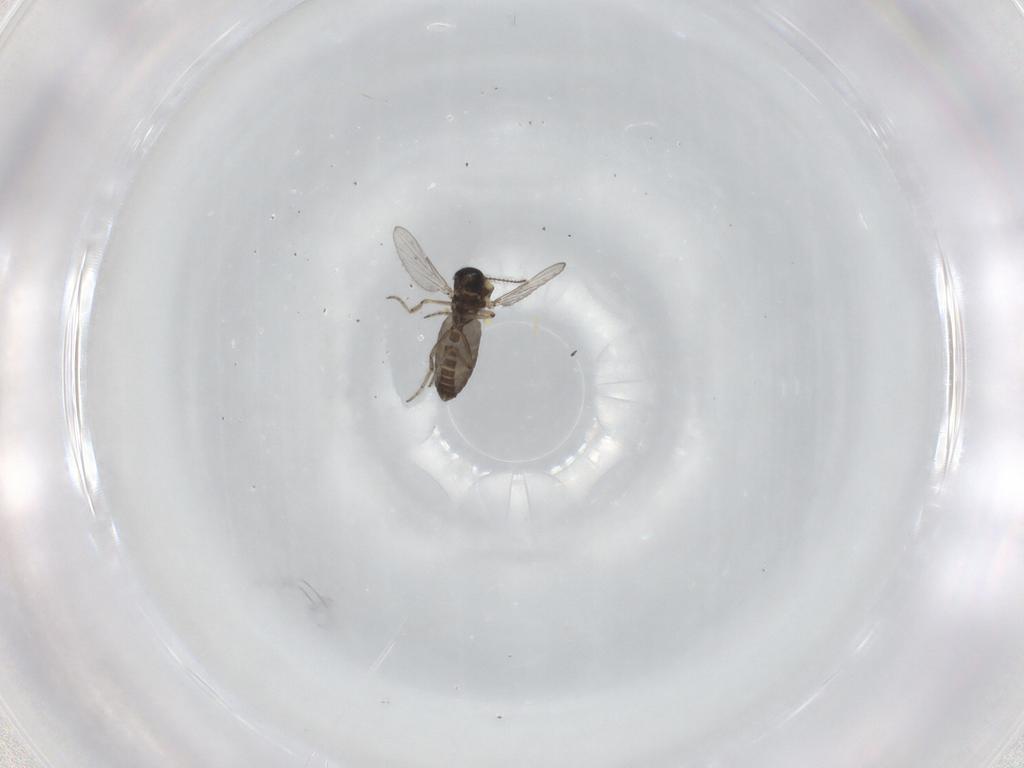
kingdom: Animalia
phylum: Arthropoda
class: Insecta
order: Diptera
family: Ceratopogonidae
